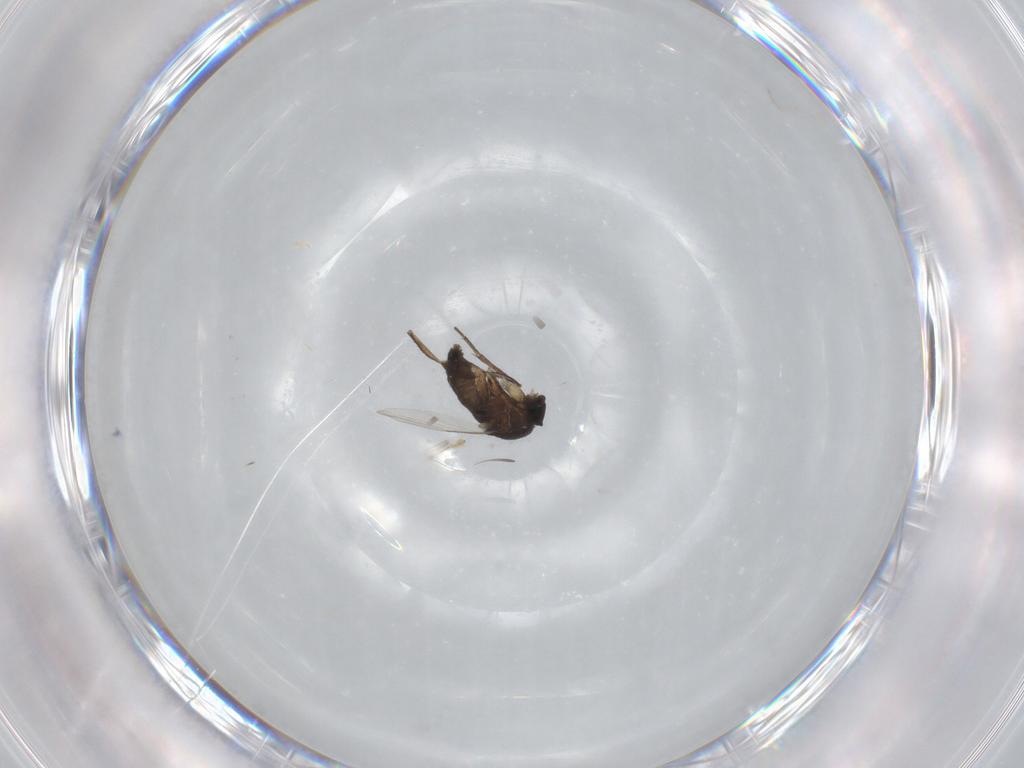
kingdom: Animalia
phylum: Arthropoda
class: Insecta
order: Diptera
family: Phoridae
